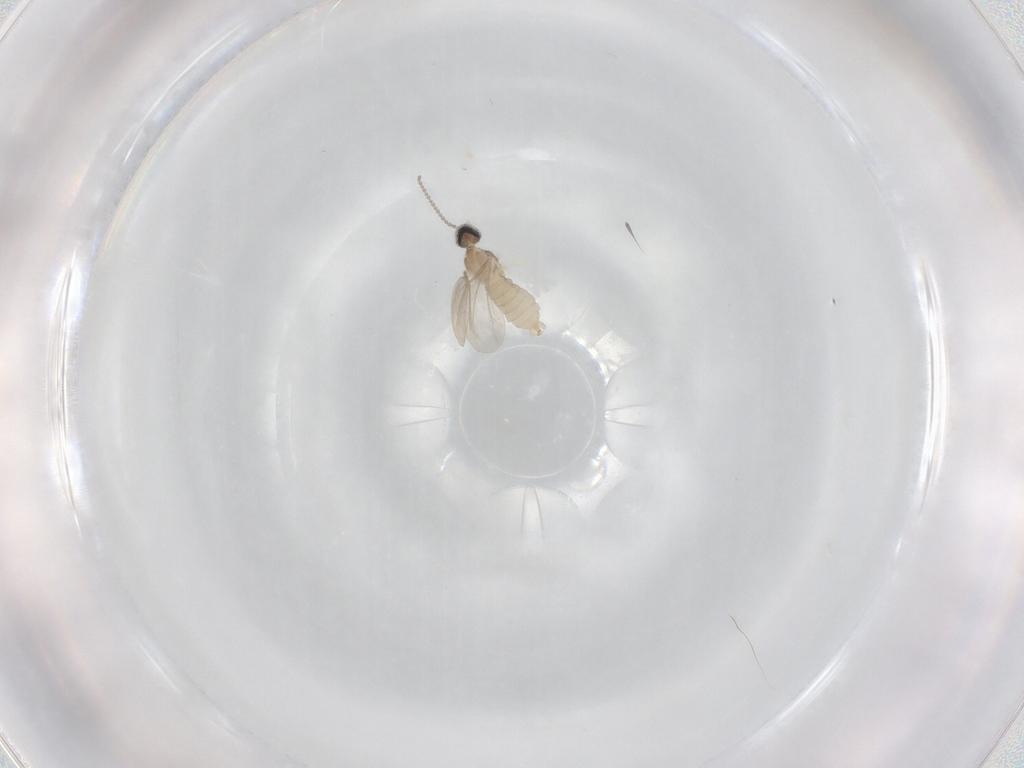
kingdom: Animalia
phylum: Arthropoda
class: Insecta
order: Diptera
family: Cecidomyiidae
